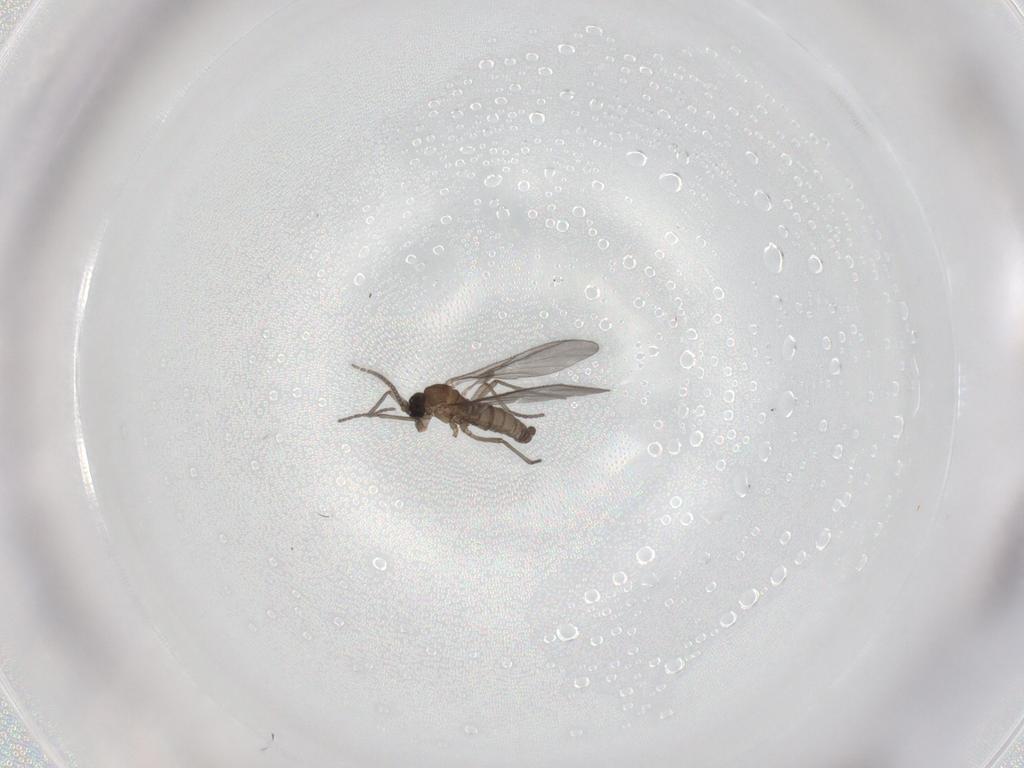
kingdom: Animalia
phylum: Arthropoda
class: Insecta
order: Diptera
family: Sciaridae
